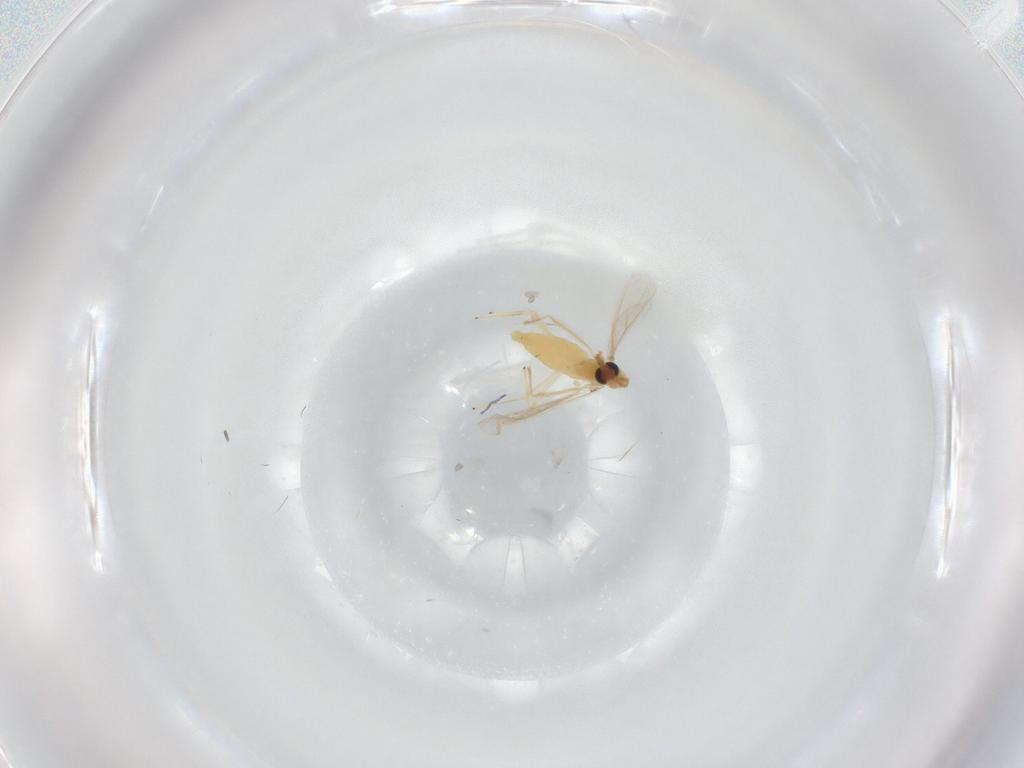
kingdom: Animalia
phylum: Arthropoda
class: Insecta
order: Diptera
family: Chironomidae
